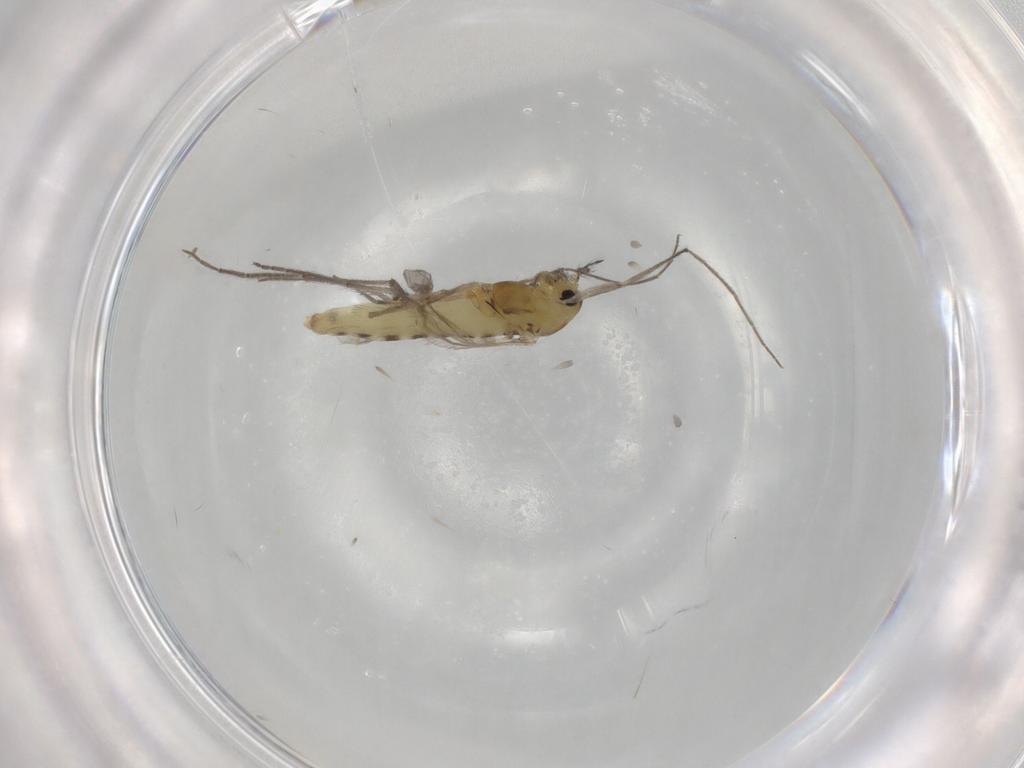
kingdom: Animalia
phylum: Arthropoda
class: Insecta
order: Diptera
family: Chironomidae
